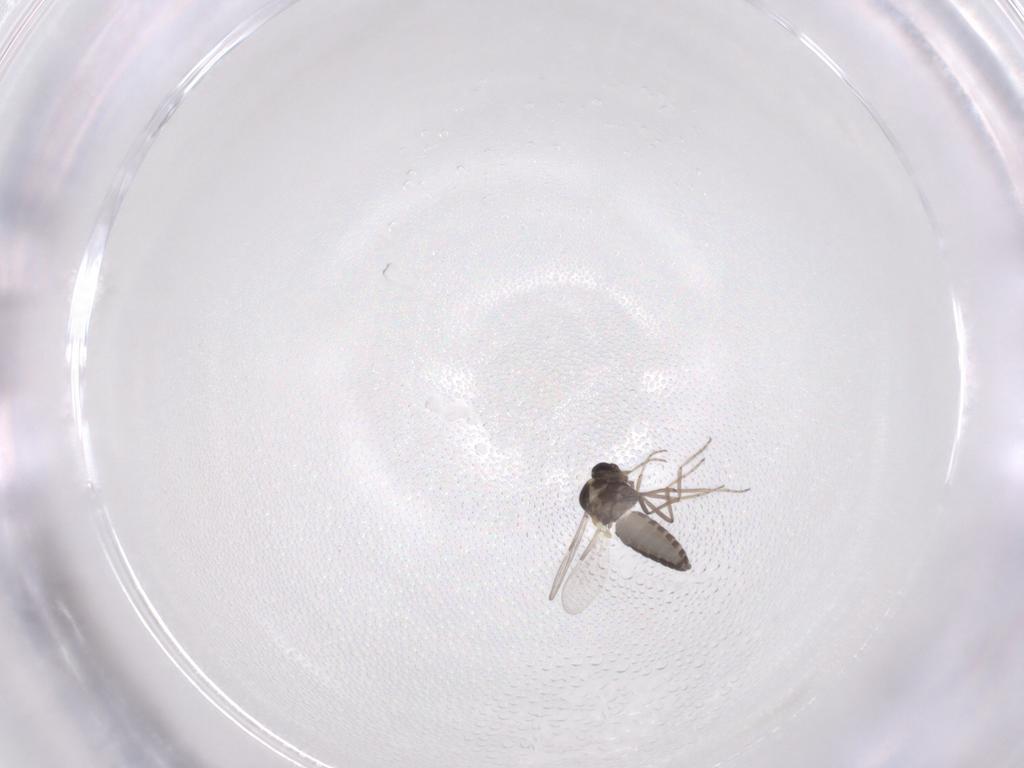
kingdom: Animalia
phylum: Arthropoda
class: Insecta
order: Diptera
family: Ceratopogonidae
